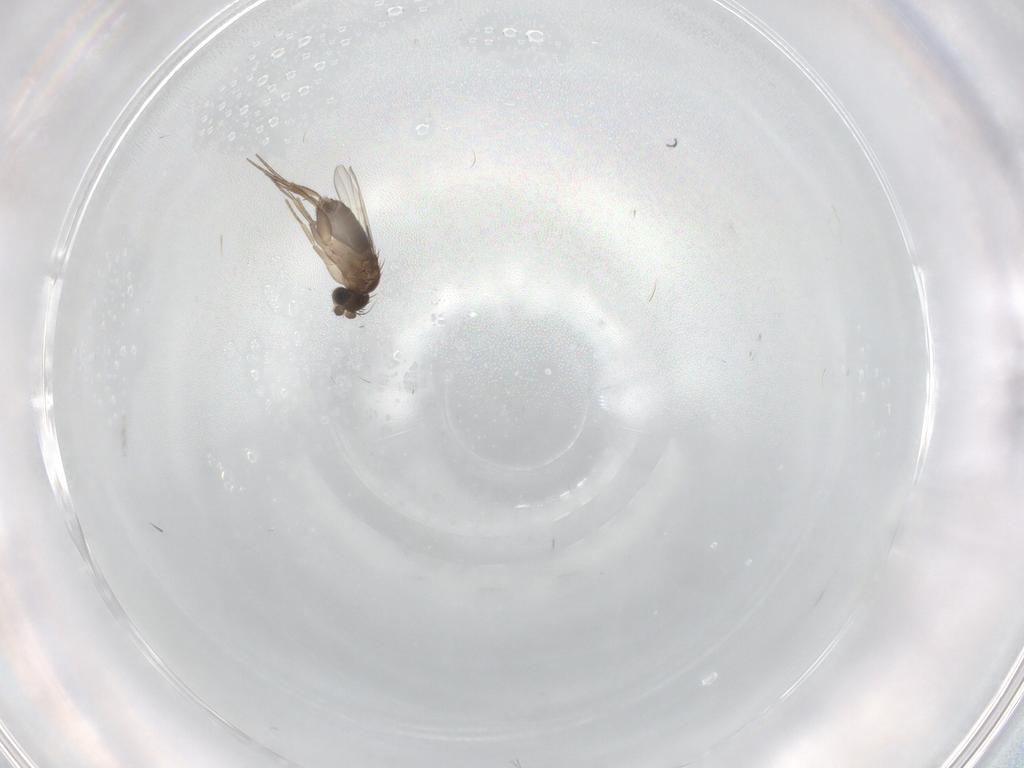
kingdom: Animalia
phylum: Arthropoda
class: Insecta
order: Diptera
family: Phoridae
